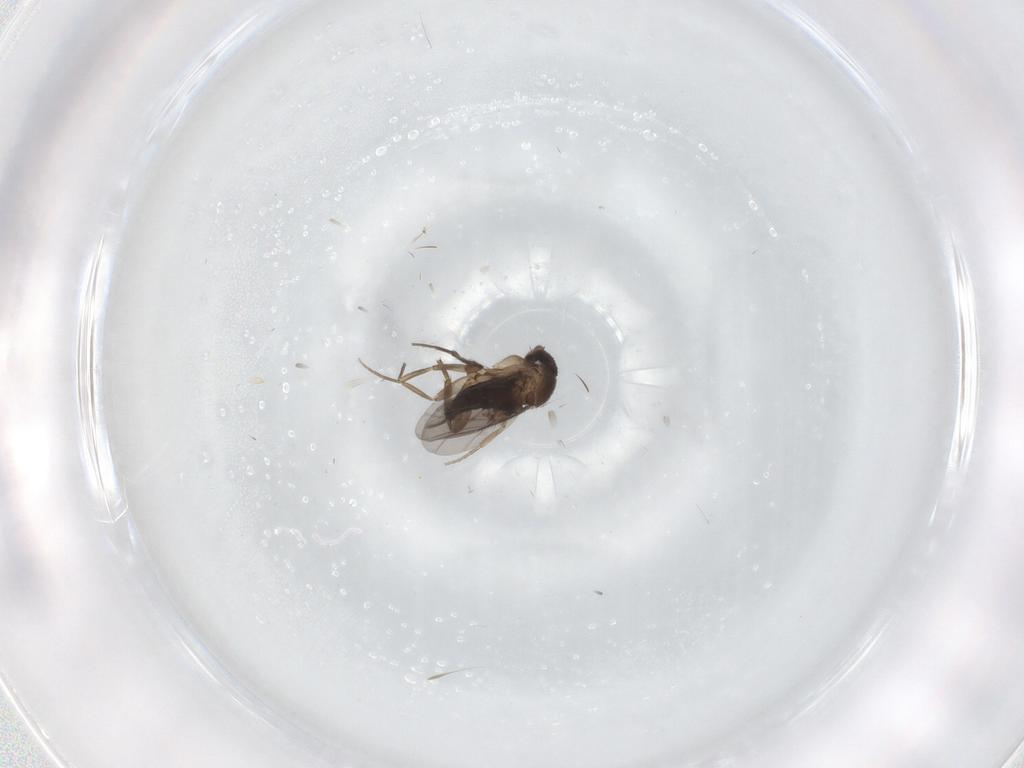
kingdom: Animalia
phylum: Arthropoda
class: Insecta
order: Diptera
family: Phoridae
